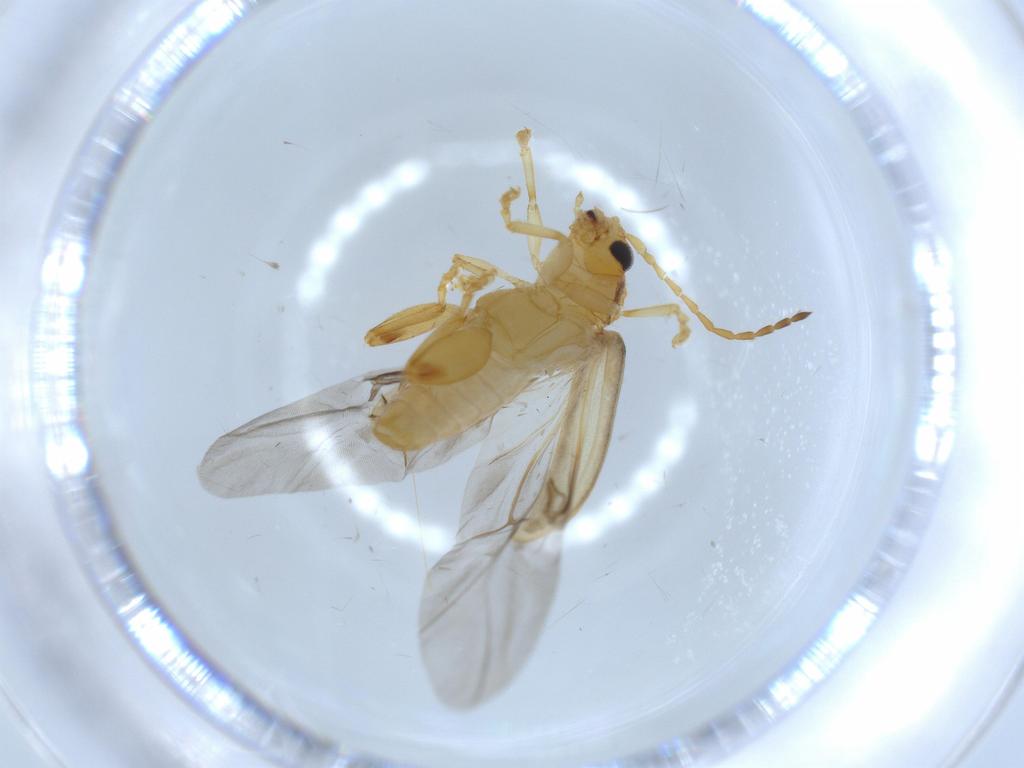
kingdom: Animalia
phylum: Arthropoda
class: Insecta
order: Coleoptera
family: Chrysomelidae
